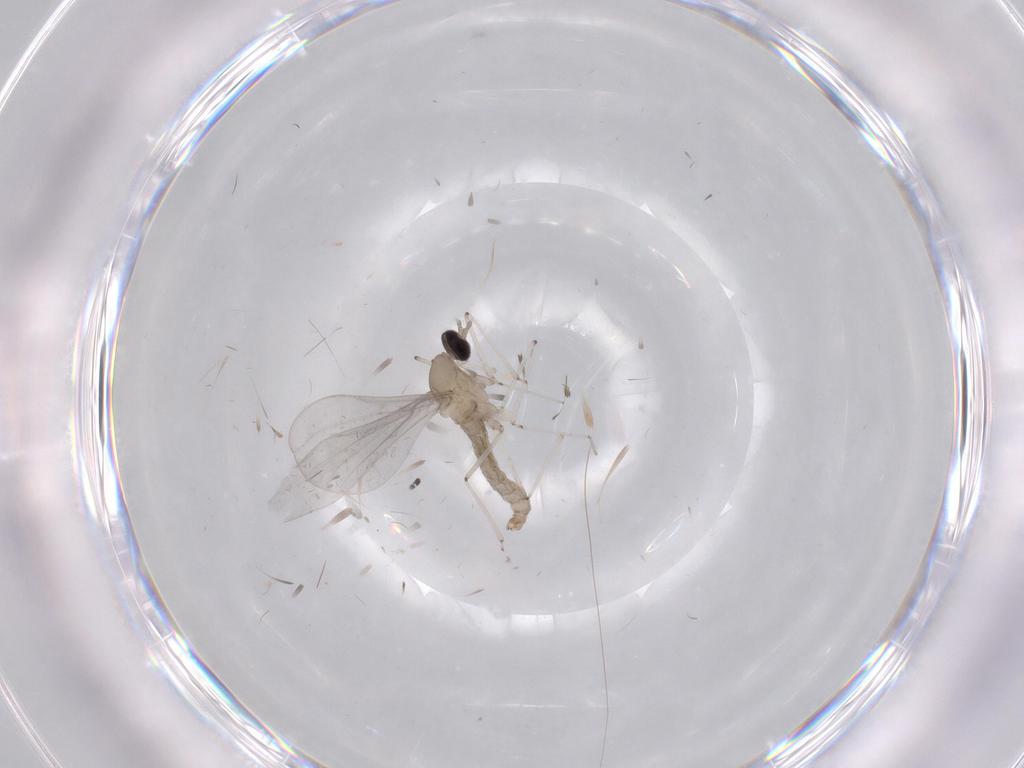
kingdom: Animalia
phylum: Arthropoda
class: Insecta
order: Diptera
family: Cecidomyiidae
